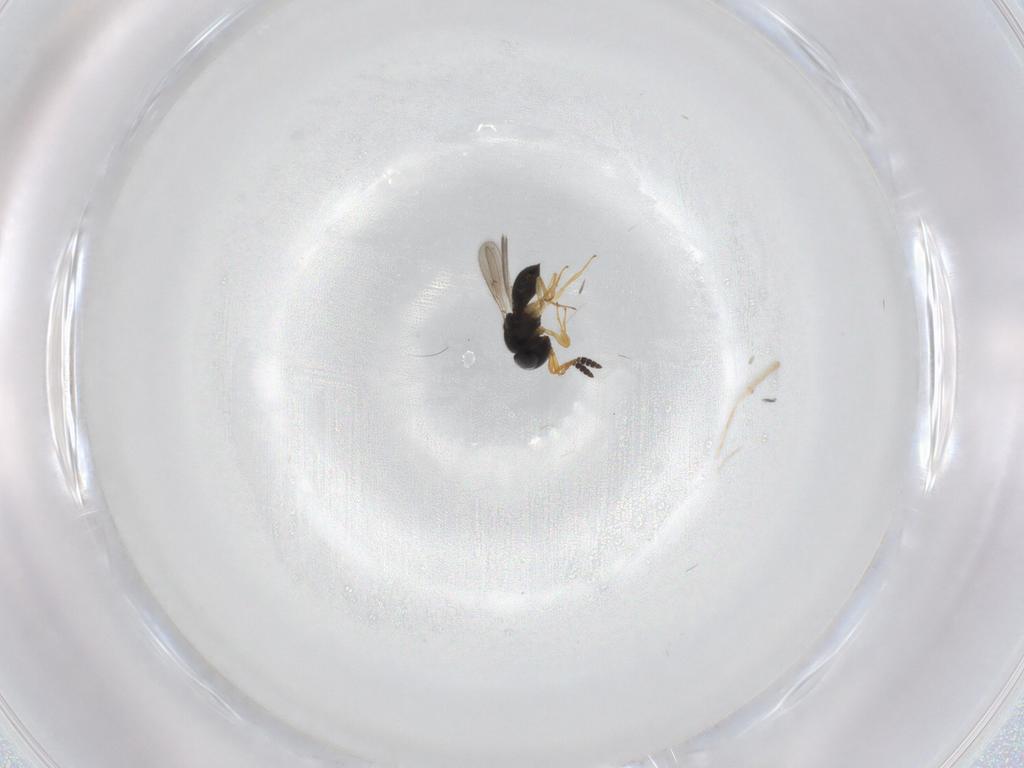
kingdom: Animalia
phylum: Arthropoda
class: Insecta
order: Hymenoptera
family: Scelionidae
